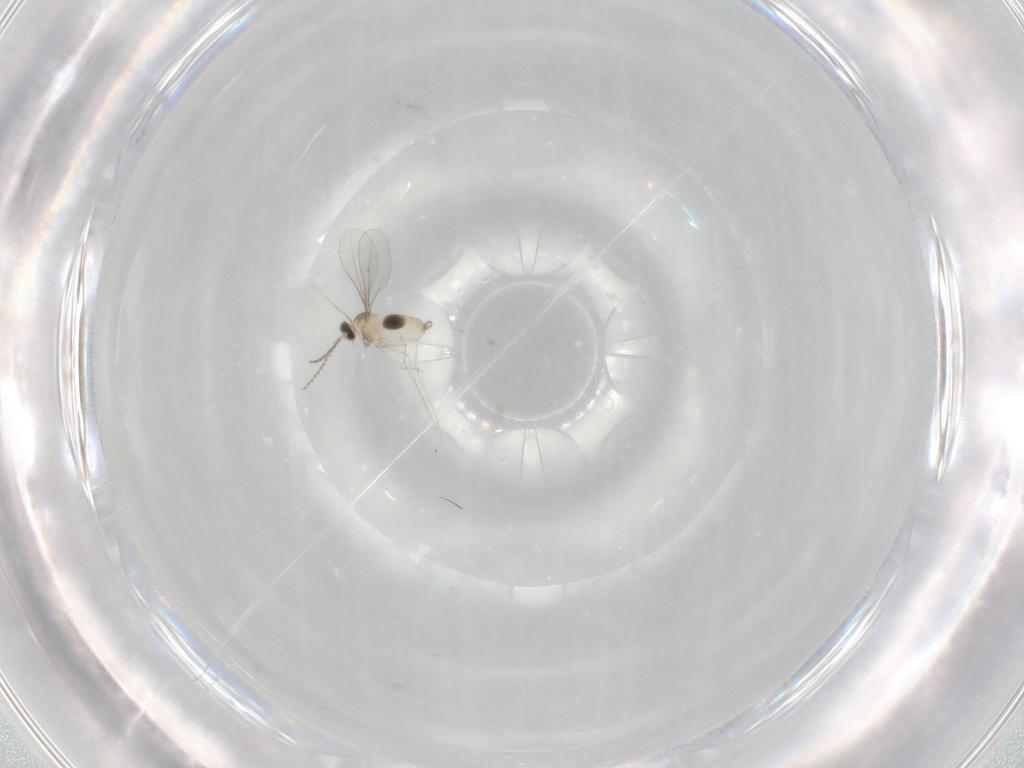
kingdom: Animalia
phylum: Arthropoda
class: Insecta
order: Diptera
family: Cecidomyiidae
